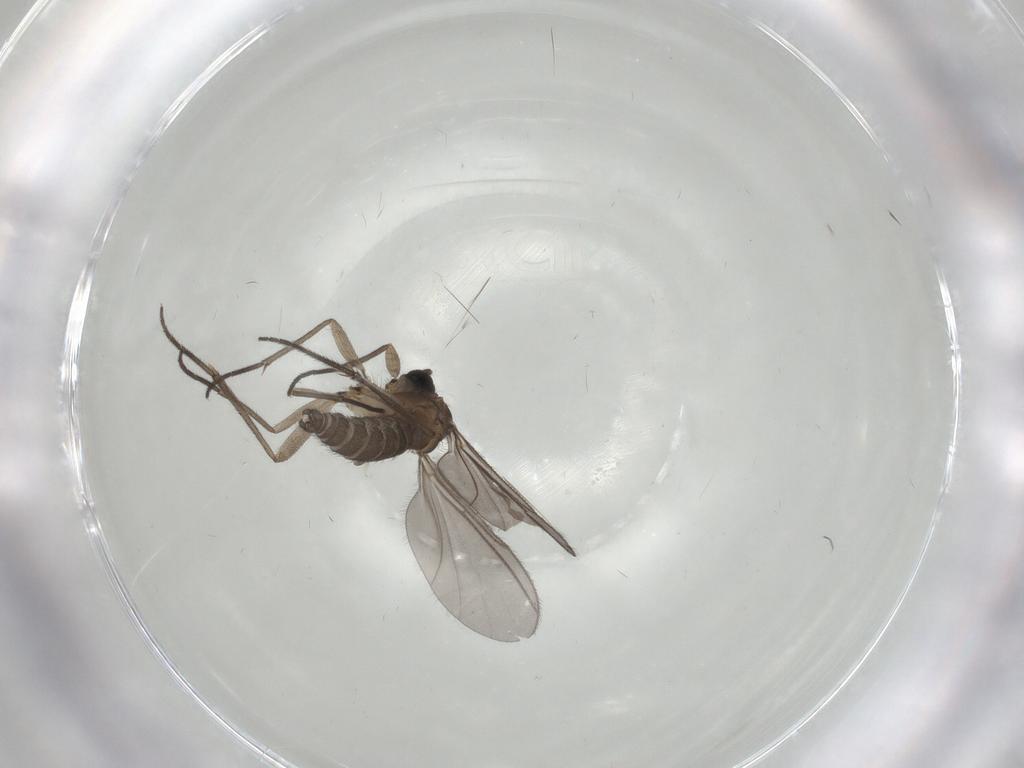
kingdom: Animalia
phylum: Arthropoda
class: Insecta
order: Diptera
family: Sciaridae
